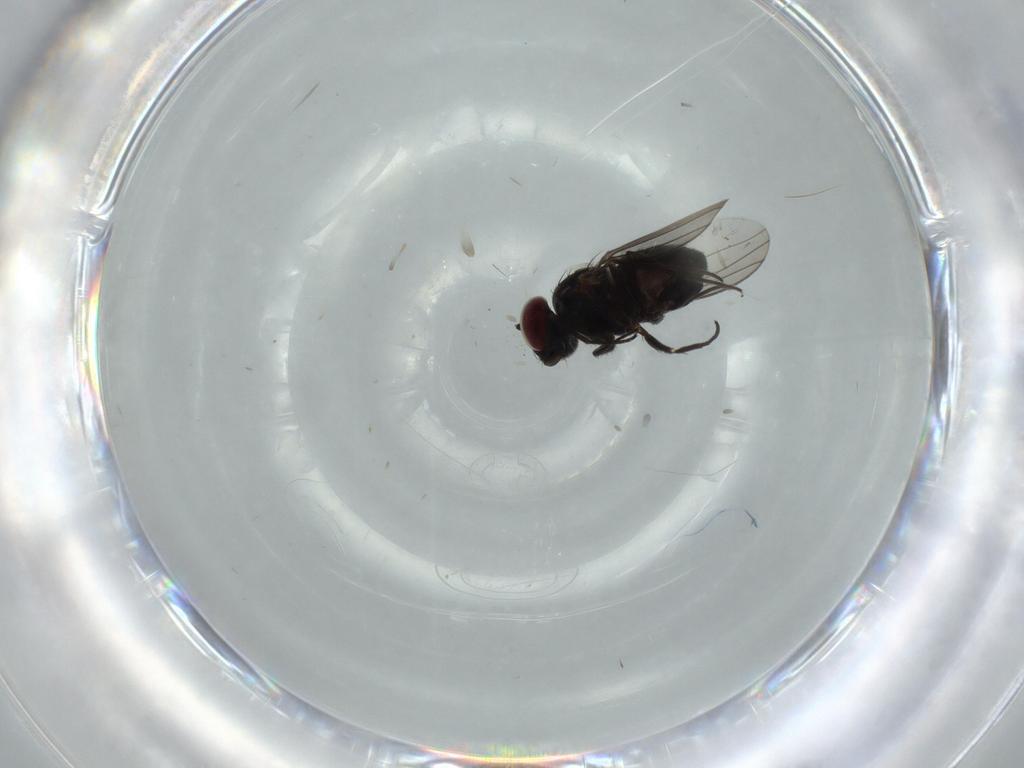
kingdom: Animalia
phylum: Arthropoda
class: Insecta
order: Diptera
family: Dolichopodidae
